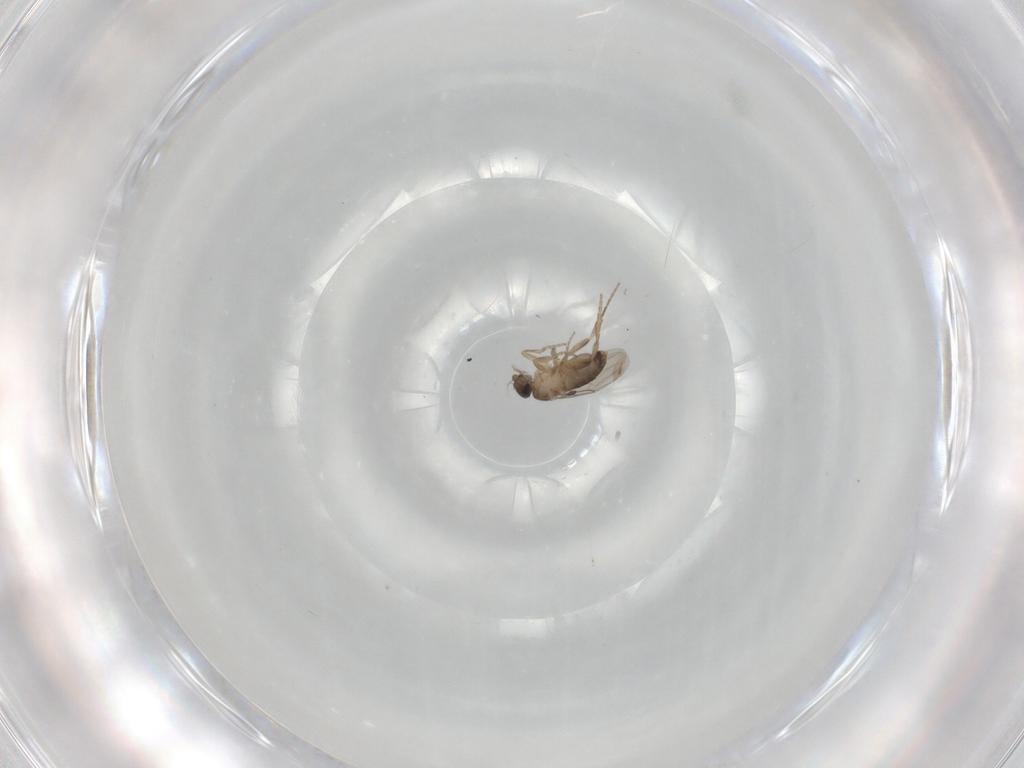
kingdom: Animalia
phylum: Arthropoda
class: Insecta
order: Diptera
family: Phoridae
